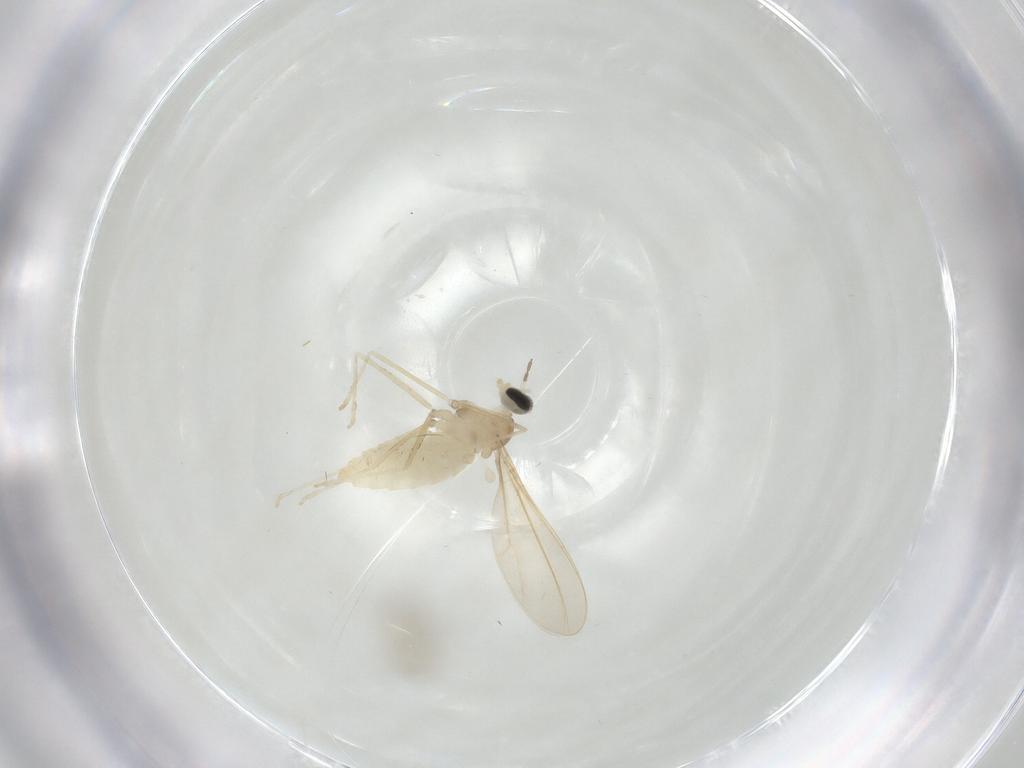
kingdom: Animalia
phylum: Arthropoda
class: Insecta
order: Diptera
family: Cecidomyiidae
